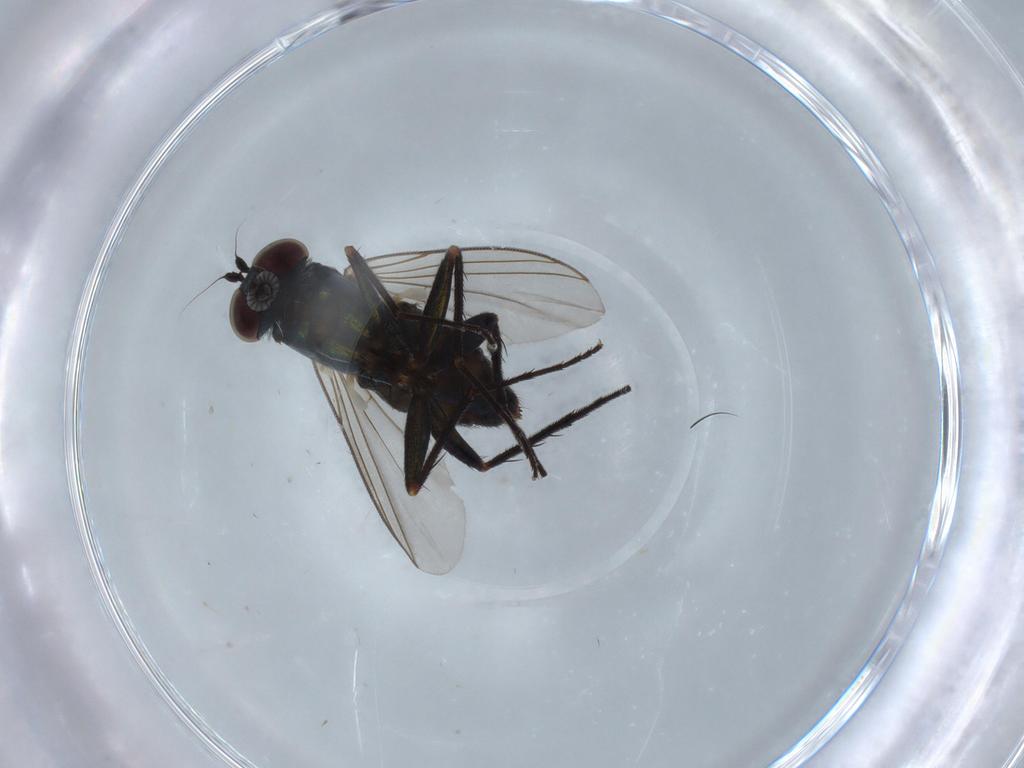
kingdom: Animalia
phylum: Arthropoda
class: Insecta
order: Diptera
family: Dolichopodidae
